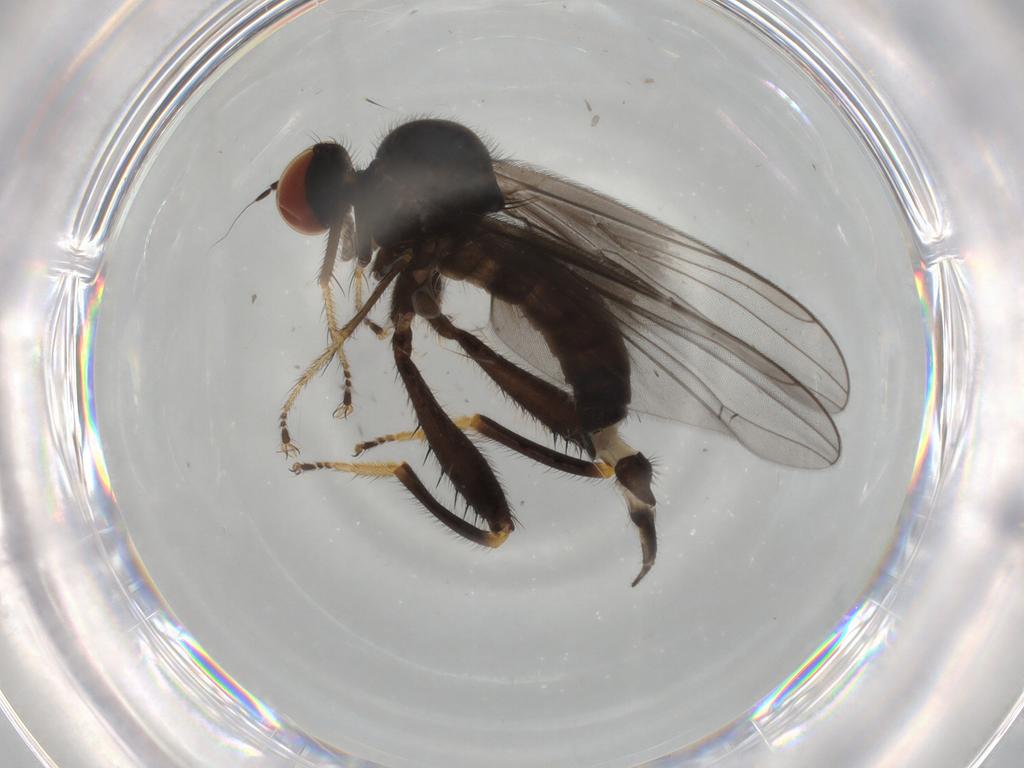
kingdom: Animalia
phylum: Arthropoda
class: Insecta
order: Diptera
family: Hybotidae
